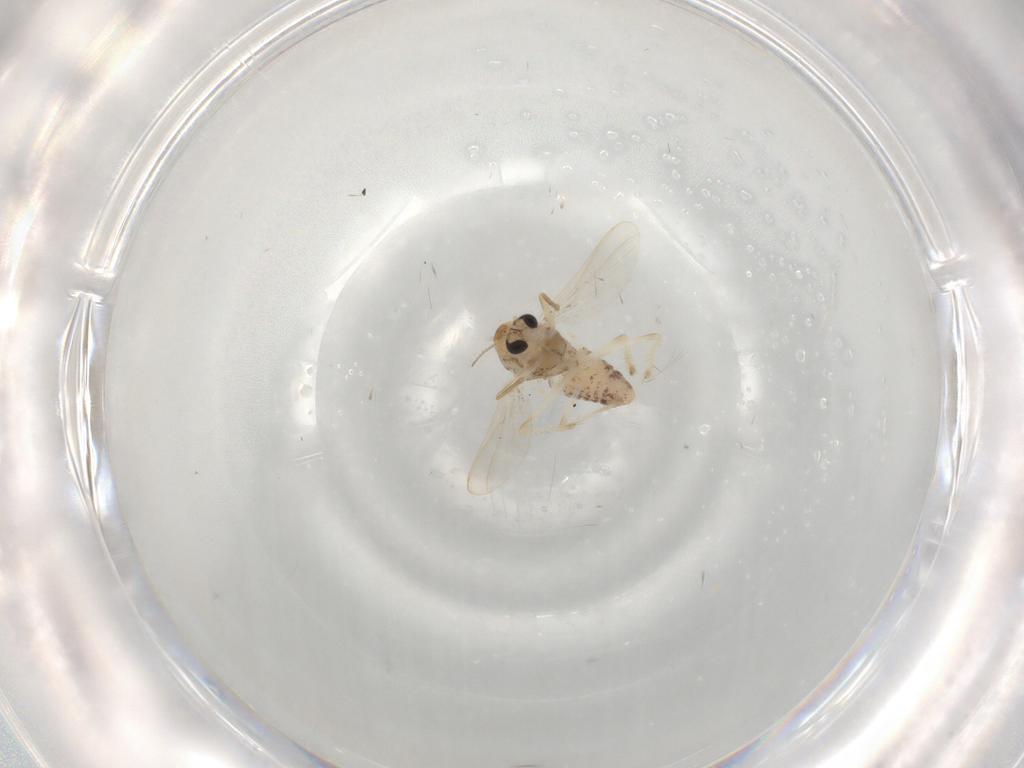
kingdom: Animalia
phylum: Arthropoda
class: Insecta
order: Diptera
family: Chironomidae
